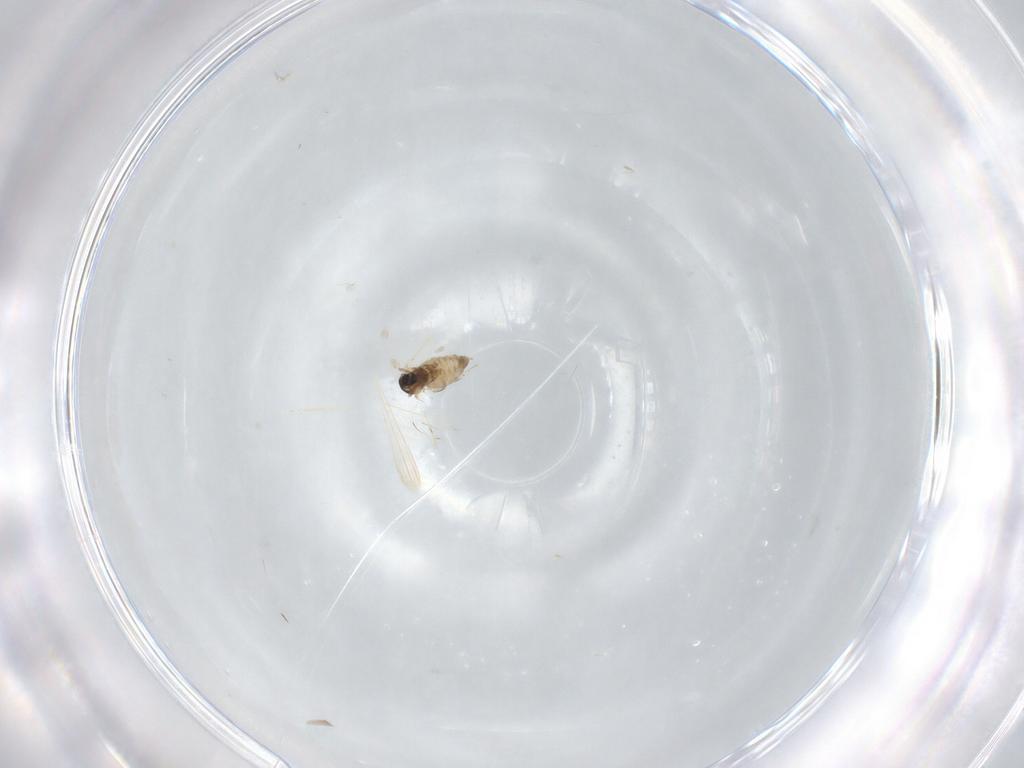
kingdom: Animalia
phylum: Arthropoda
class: Insecta
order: Diptera
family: Cecidomyiidae
